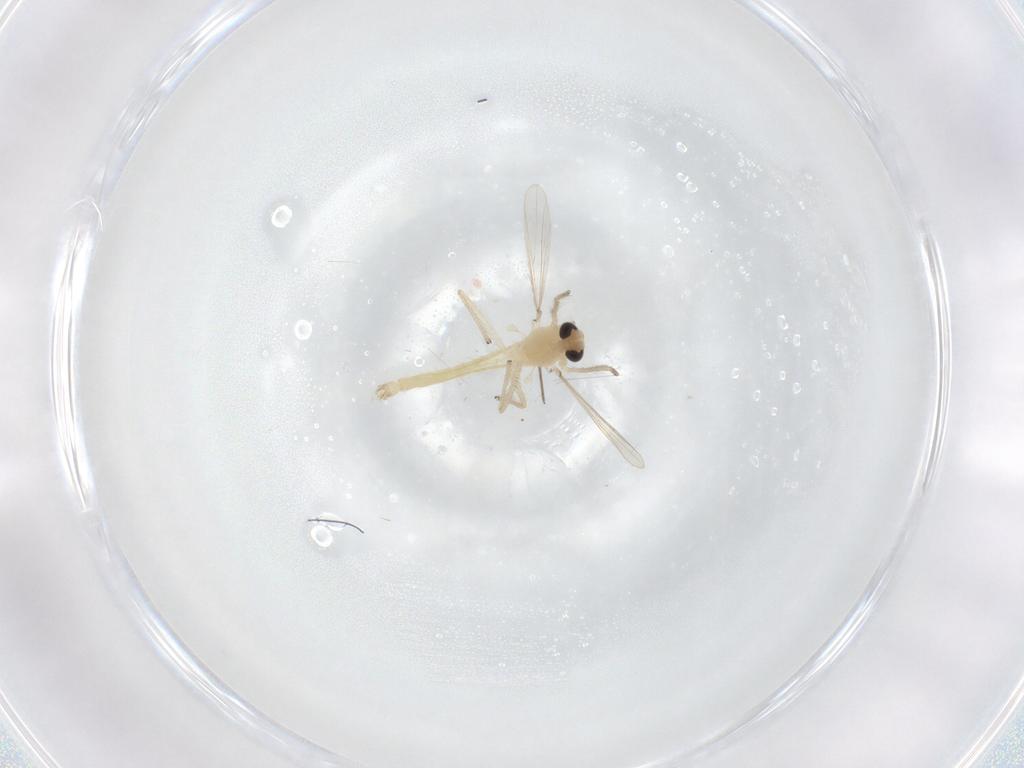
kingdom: Animalia
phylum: Arthropoda
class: Insecta
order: Diptera
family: Chironomidae
